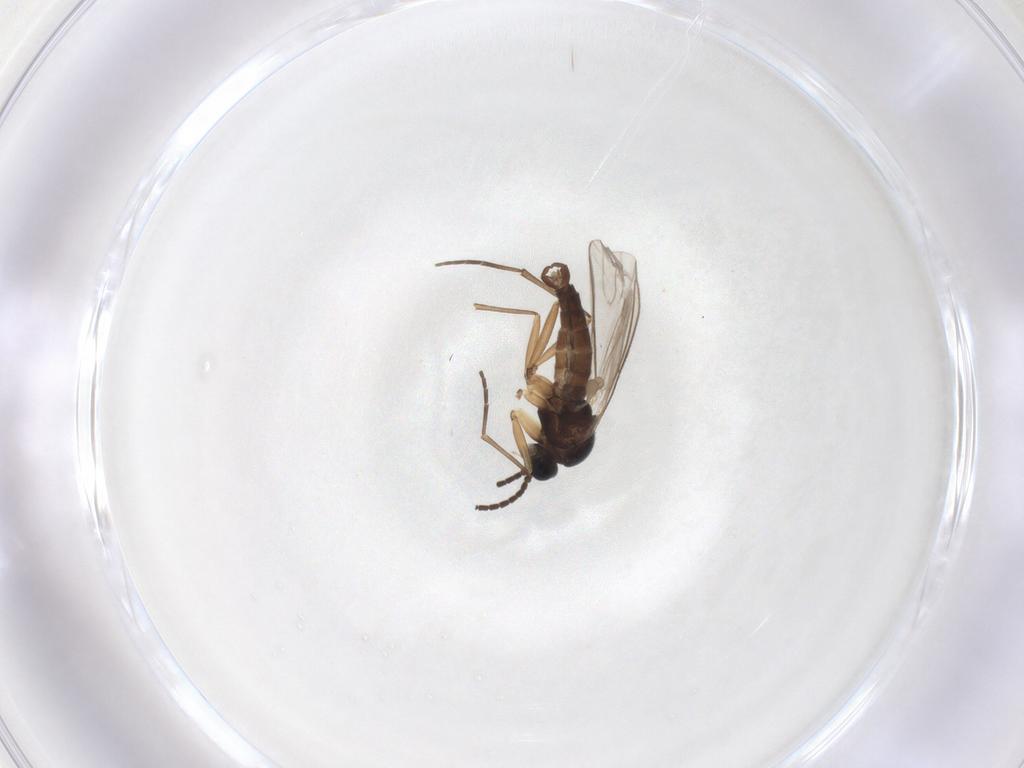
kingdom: Animalia
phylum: Arthropoda
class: Insecta
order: Diptera
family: Sciaridae
